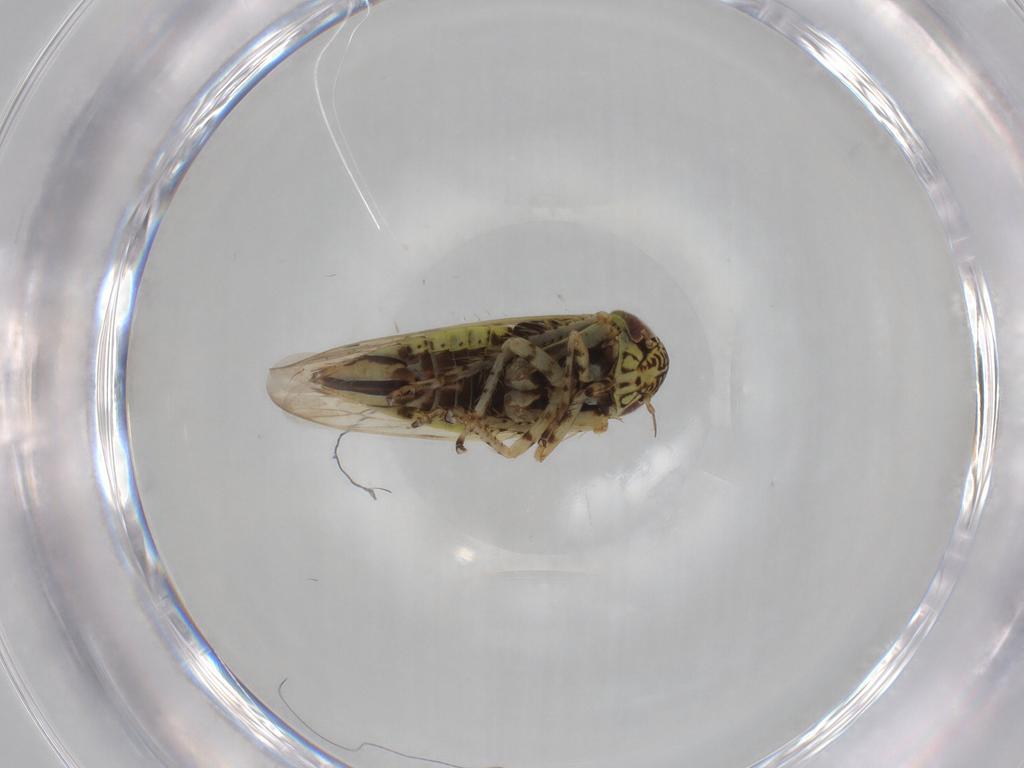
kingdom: Animalia
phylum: Arthropoda
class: Insecta
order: Hemiptera
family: Cicadellidae
